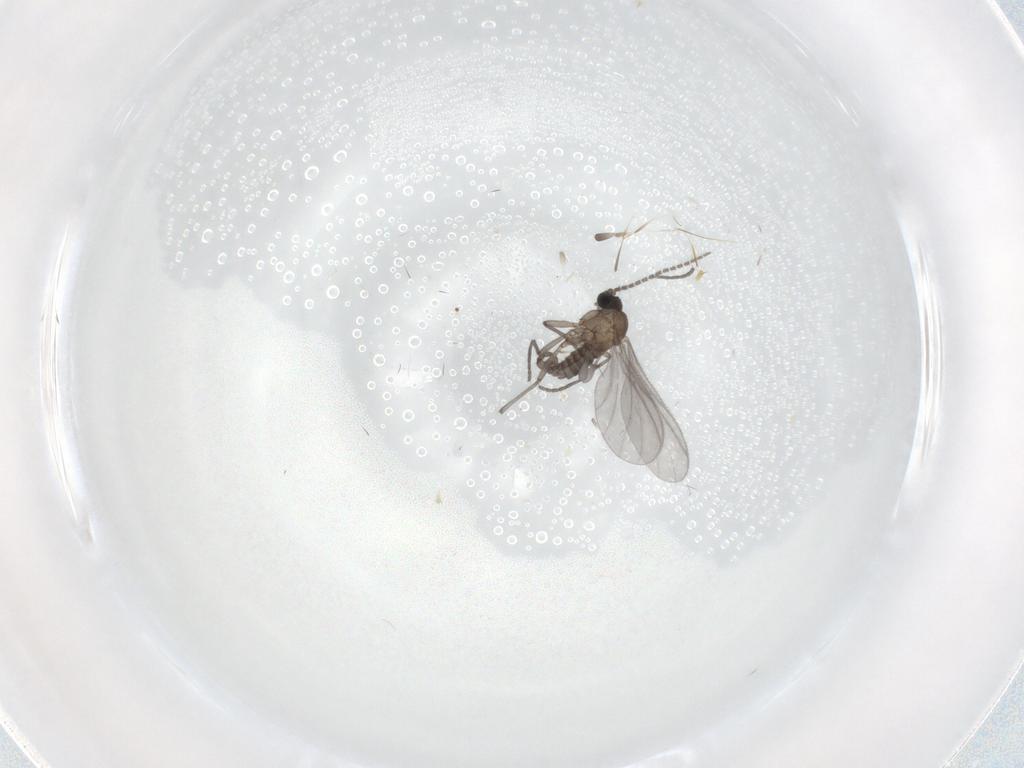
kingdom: Animalia
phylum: Arthropoda
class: Insecta
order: Diptera
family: Sciaridae
